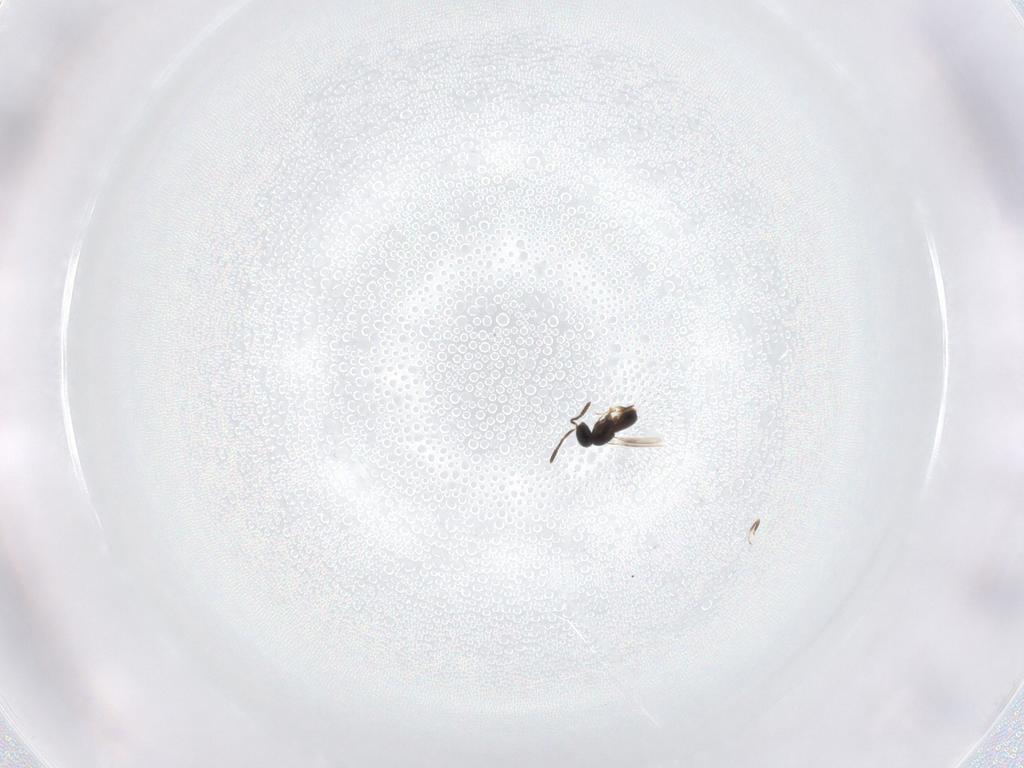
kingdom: Animalia
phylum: Arthropoda
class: Insecta
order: Hymenoptera
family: Scelionidae
